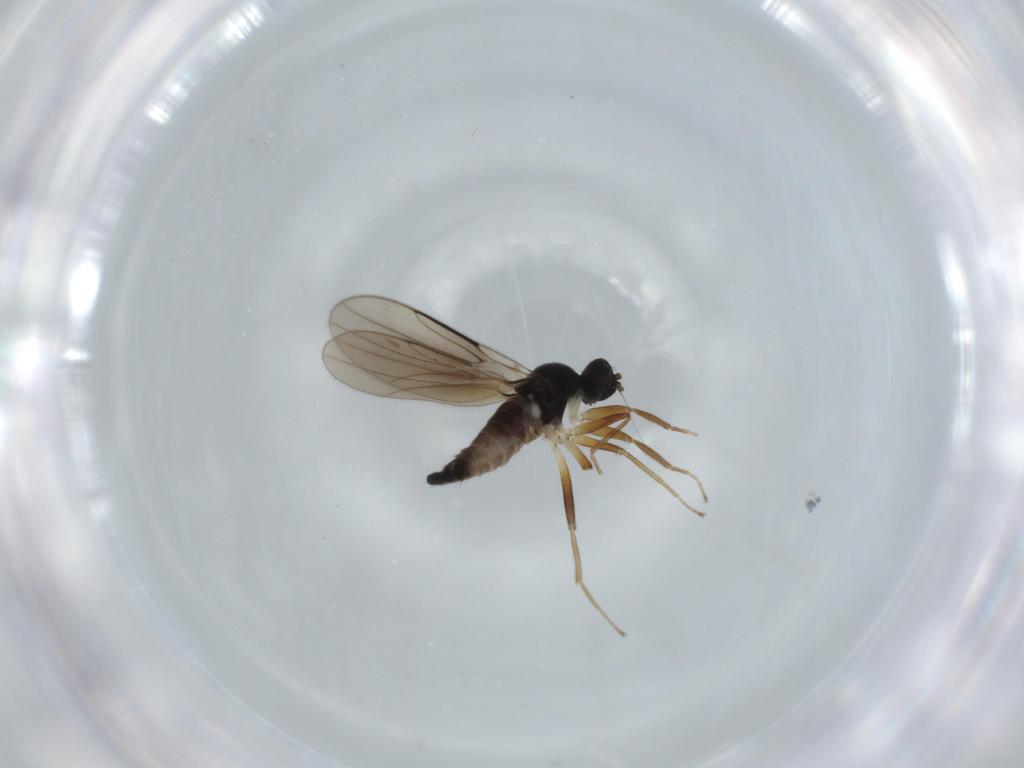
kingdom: Animalia
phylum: Arthropoda
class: Insecta
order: Diptera
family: Hybotidae
